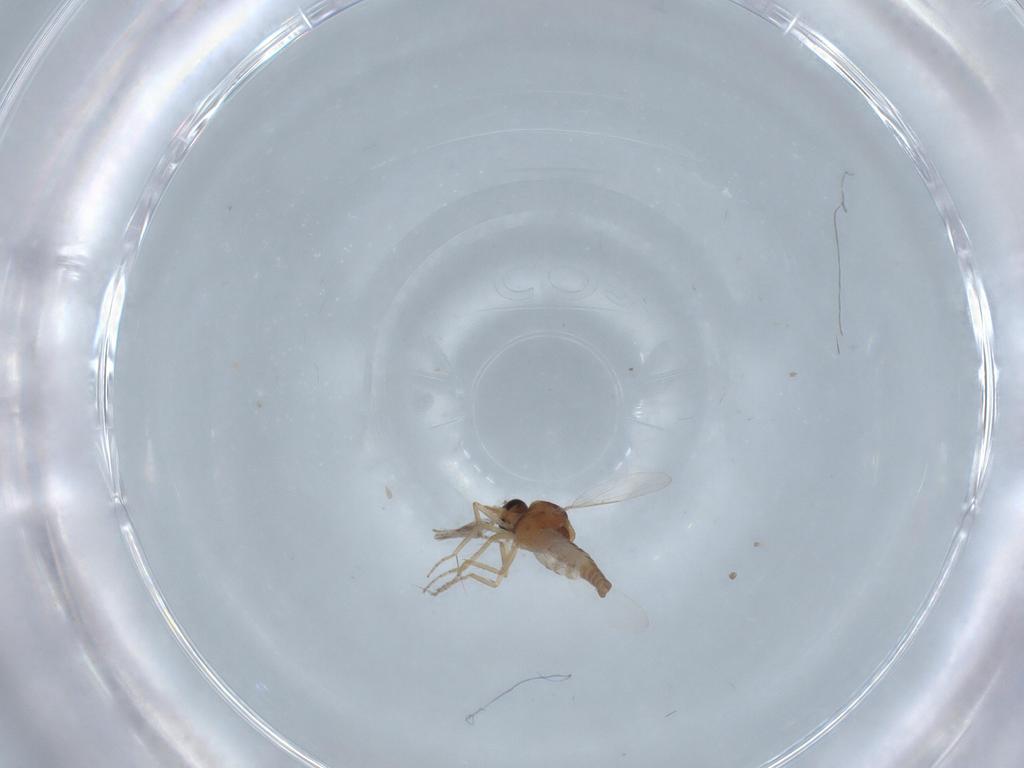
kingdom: Animalia
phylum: Arthropoda
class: Insecta
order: Diptera
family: Ceratopogonidae
